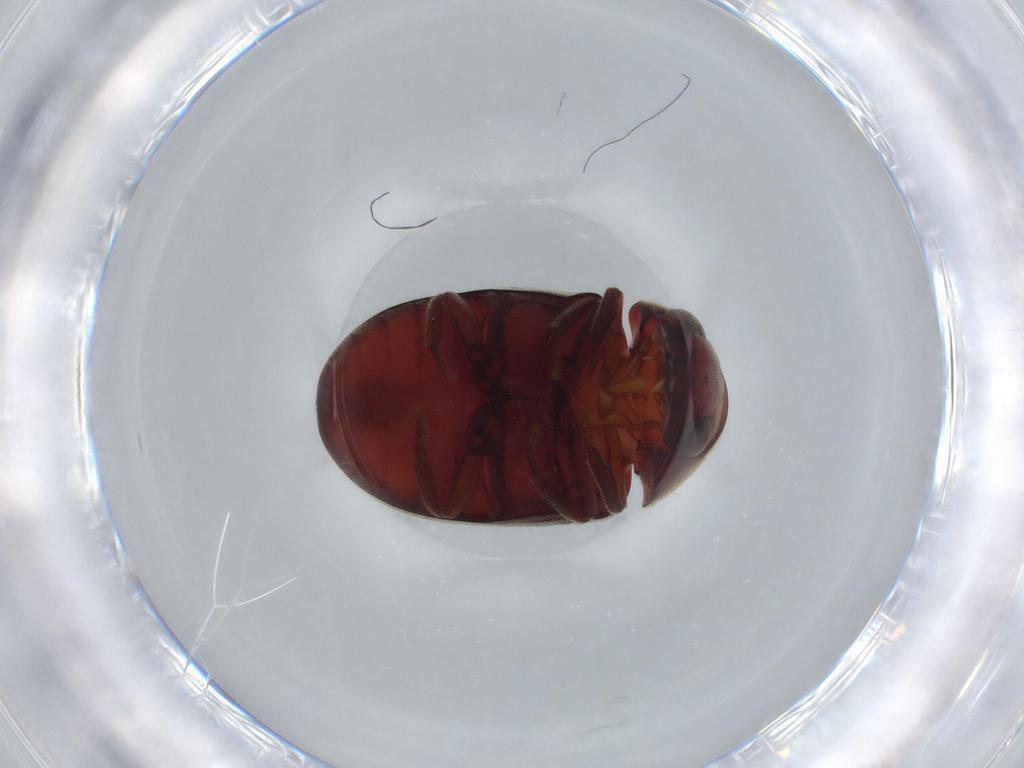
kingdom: Animalia
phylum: Arthropoda
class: Insecta
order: Coleoptera
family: Ptinidae
